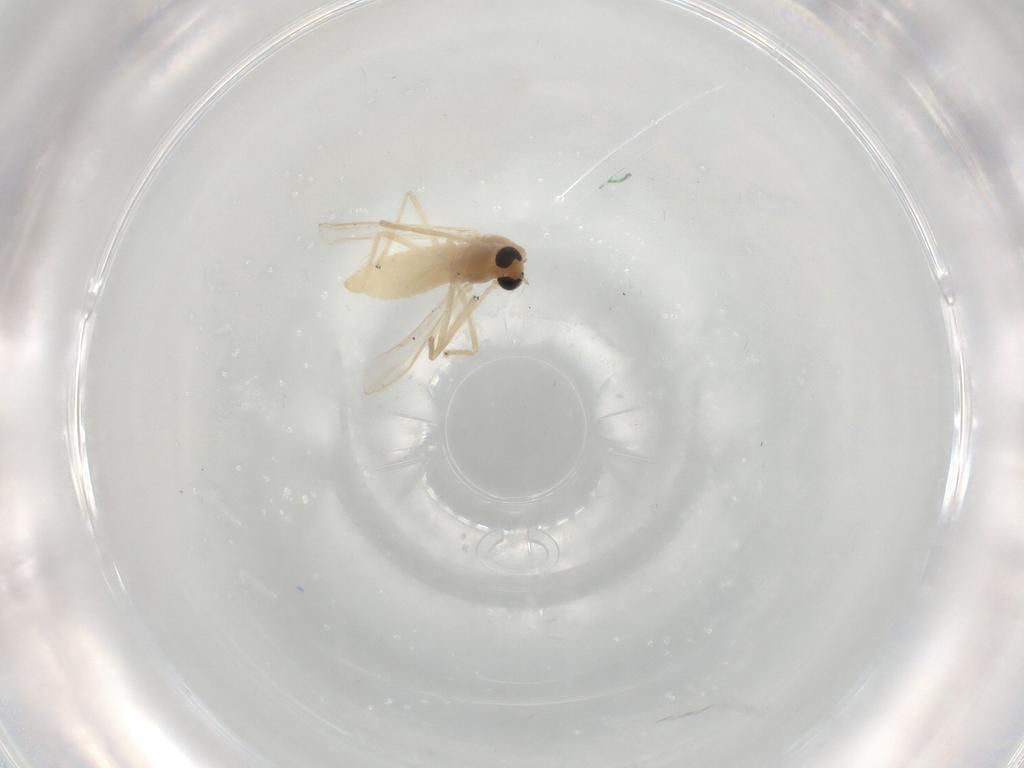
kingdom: Animalia
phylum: Arthropoda
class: Insecta
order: Diptera
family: Chironomidae
